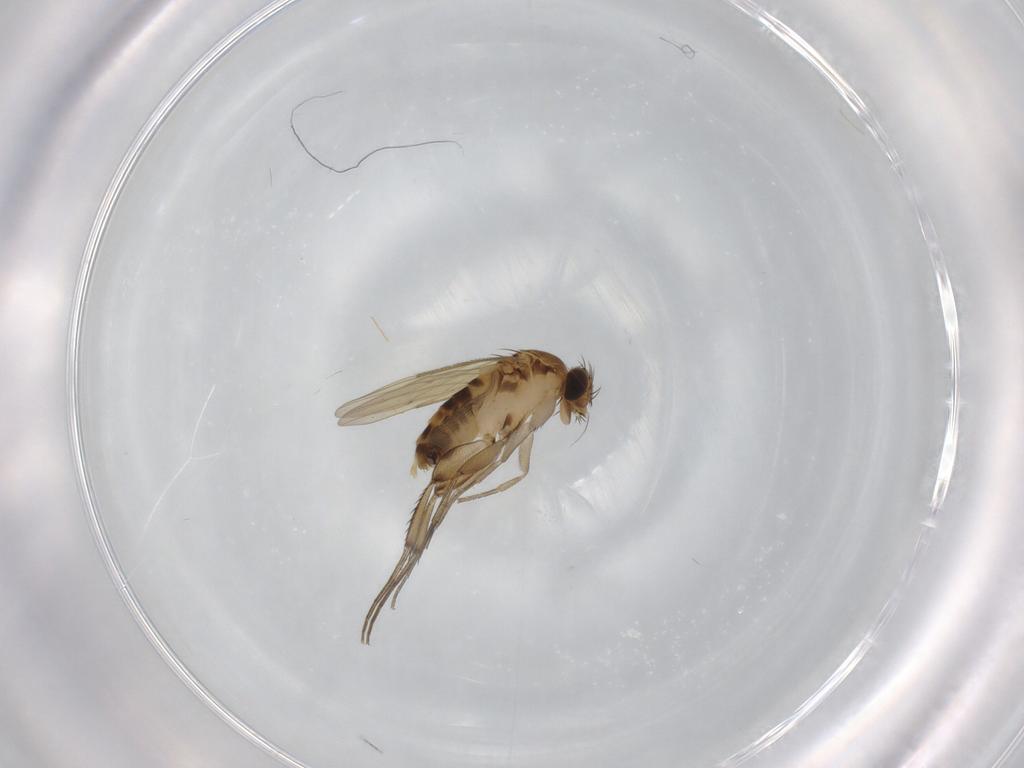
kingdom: Animalia
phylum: Arthropoda
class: Insecta
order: Diptera
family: Phoridae
